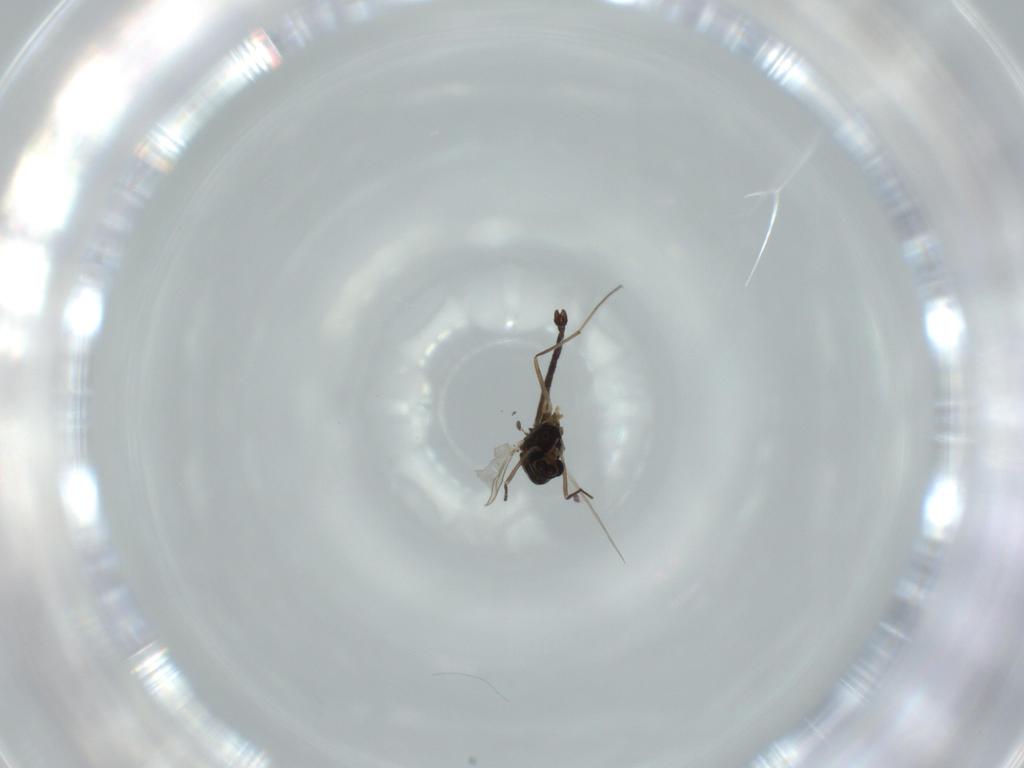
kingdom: Animalia
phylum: Arthropoda
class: Insecta
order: Diptera
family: Chironomidae
